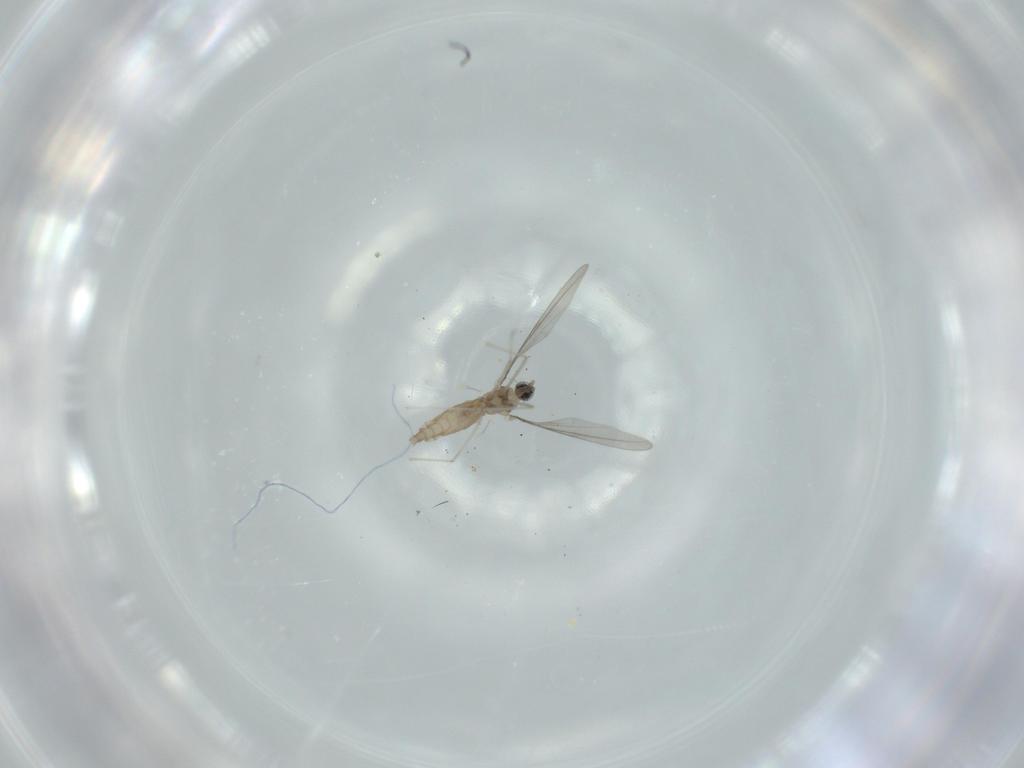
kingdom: Animalia
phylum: Arthropoda
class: Insecta
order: Diptera
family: Cecidomyiidae
